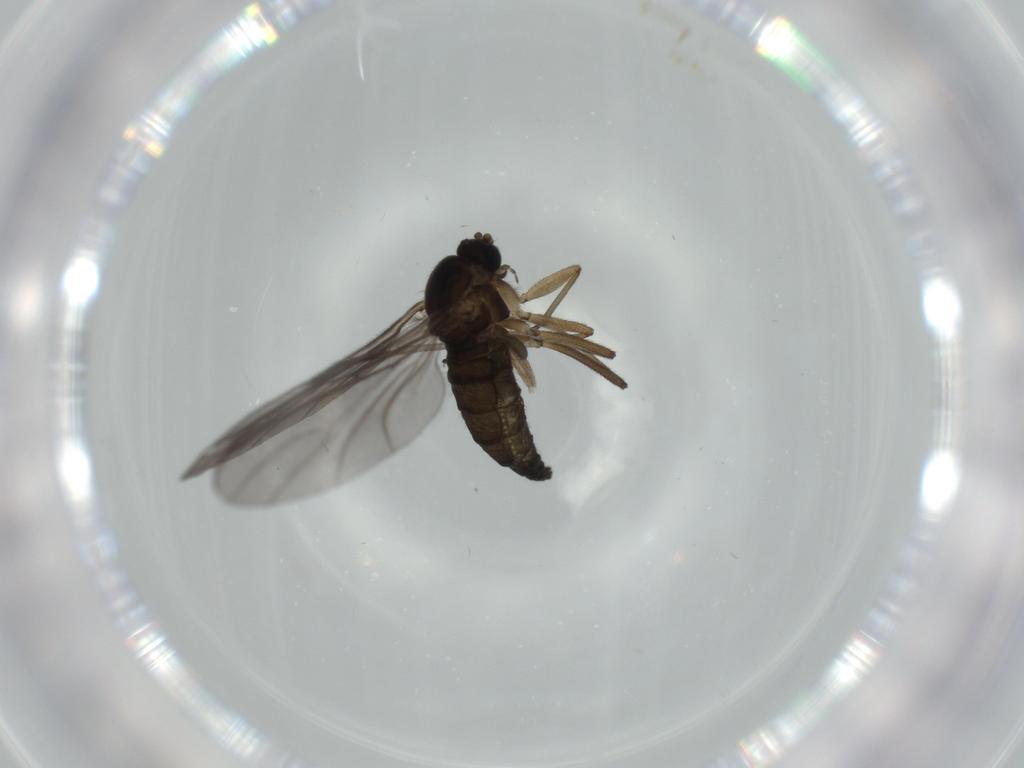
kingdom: Animalia
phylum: Arthropoda
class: Insecta
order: Diptera
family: Sciaridae
